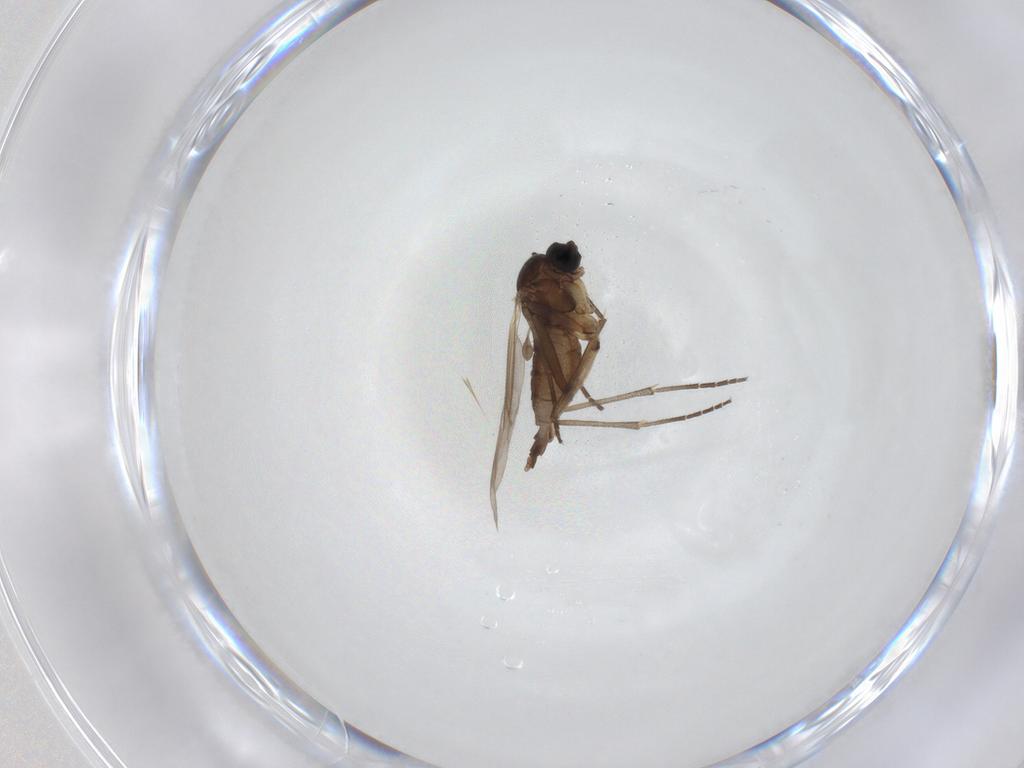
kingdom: Animalia
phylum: Arthropoda
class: Insecta
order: Diptera
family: Sciaridae
